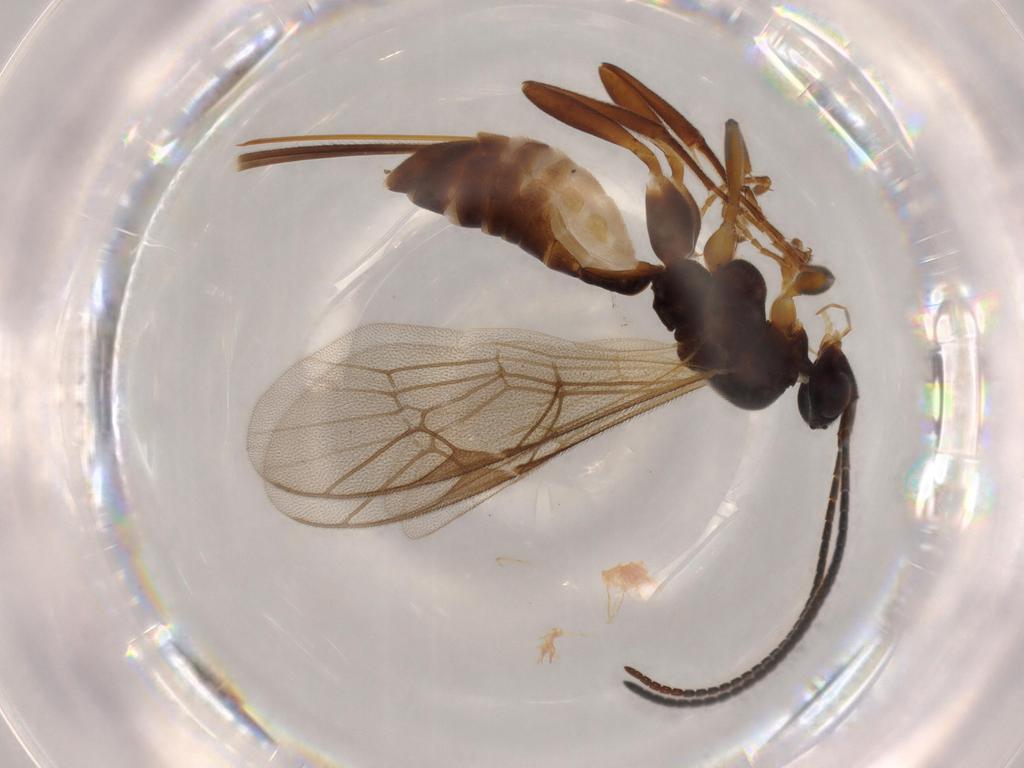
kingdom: Animalia
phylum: Arthropoda
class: Insecta
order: Hymenoptera
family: Ichneumonidae
